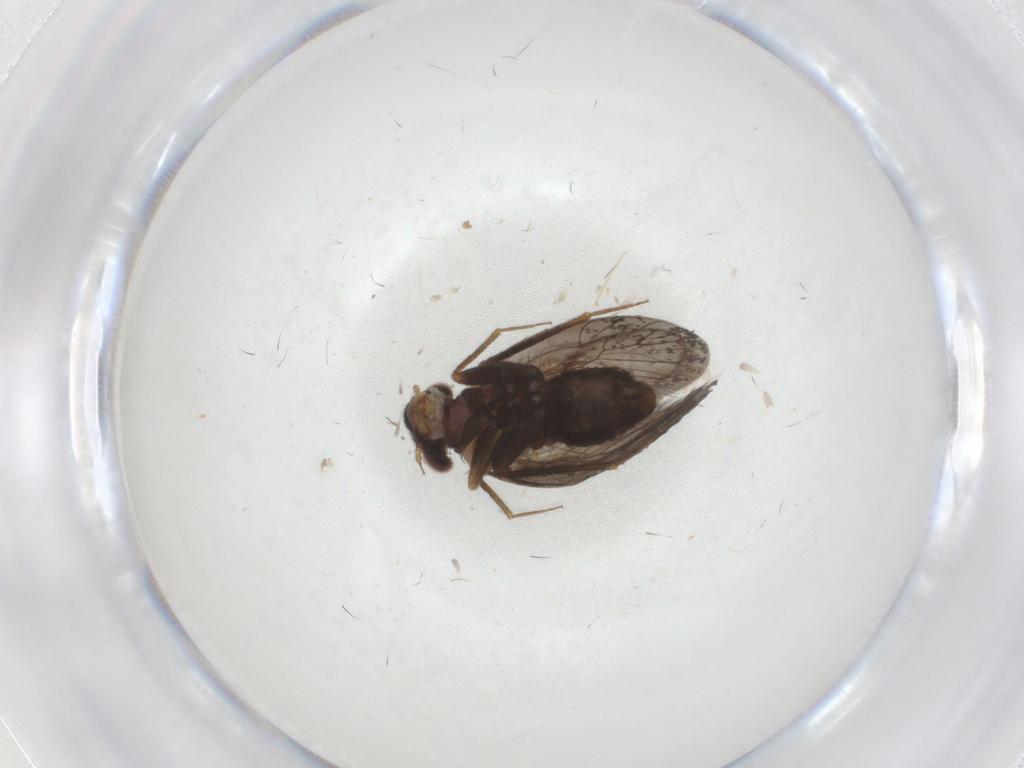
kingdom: Animalia
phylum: Arthropoda
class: Insecta
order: Psocodea
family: Lepidopsocidae
